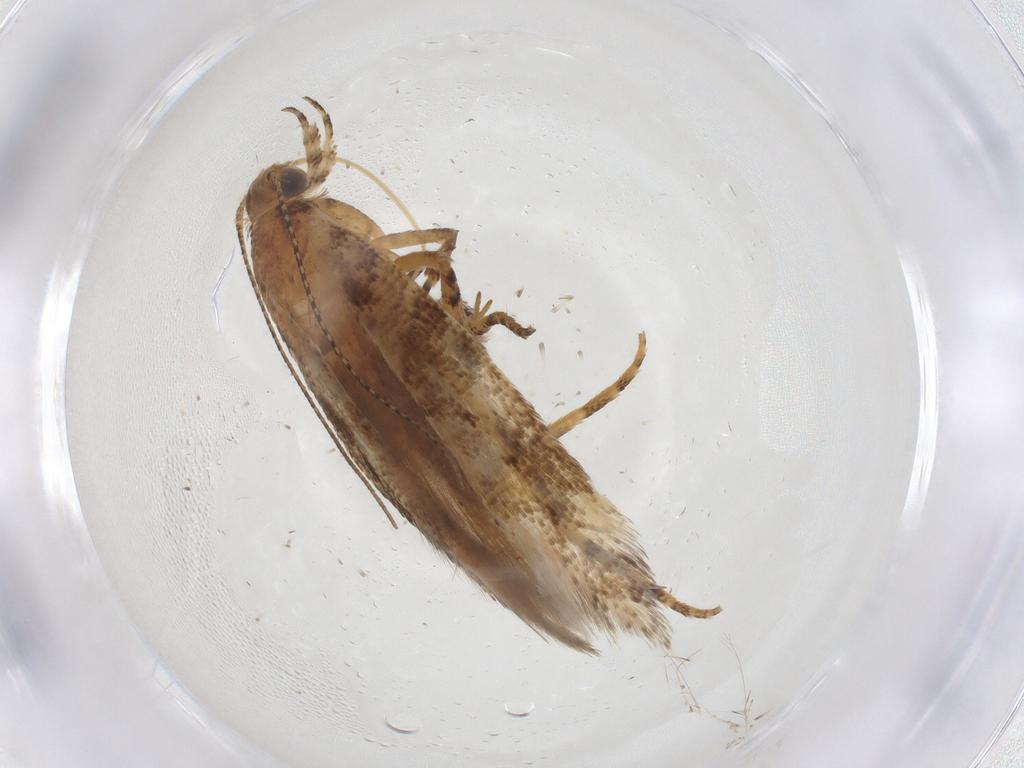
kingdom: Animalia
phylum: Arthropoda
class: Insecta
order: Lepidoptera
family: Gelechiidae
